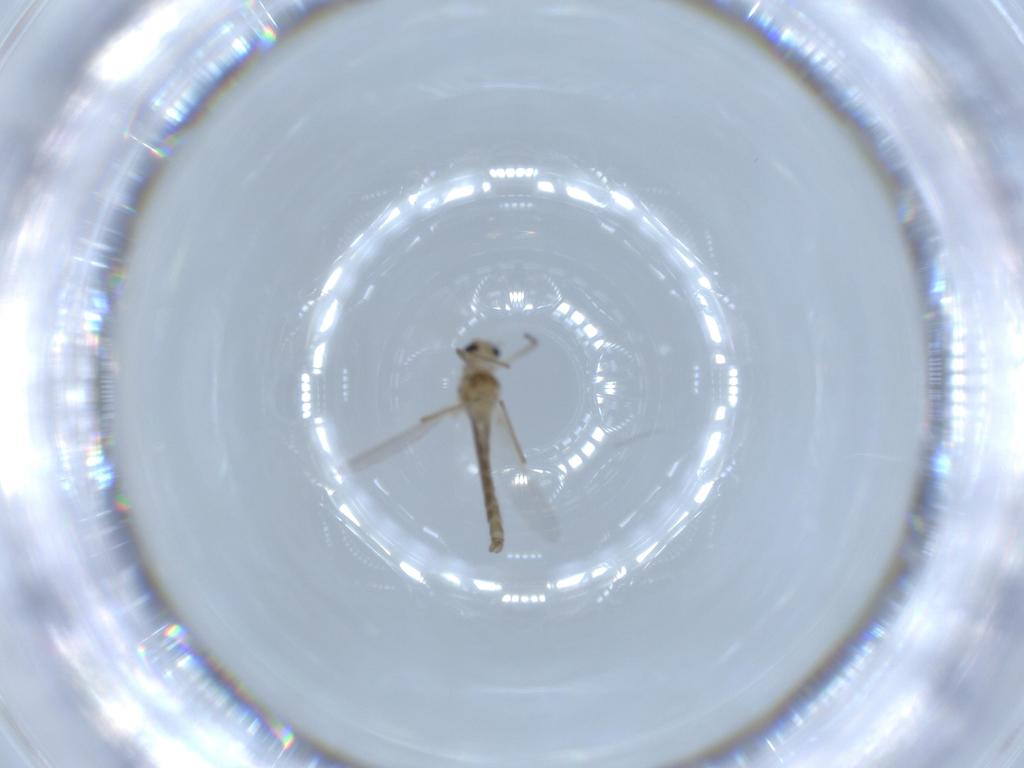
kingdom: Animalia
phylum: Arthropoda
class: Insecta
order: Diptera
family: Chironomidae
